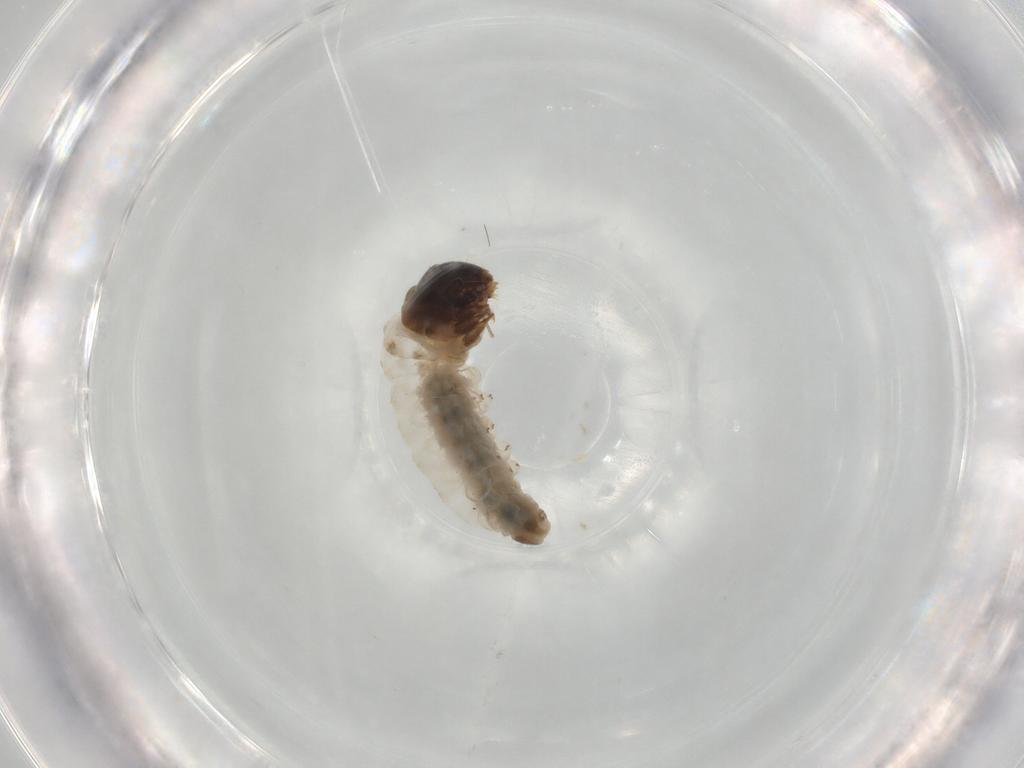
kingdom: Animalia
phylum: Arthropoda
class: Insecta
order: Lepidoptera
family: Psychidae
